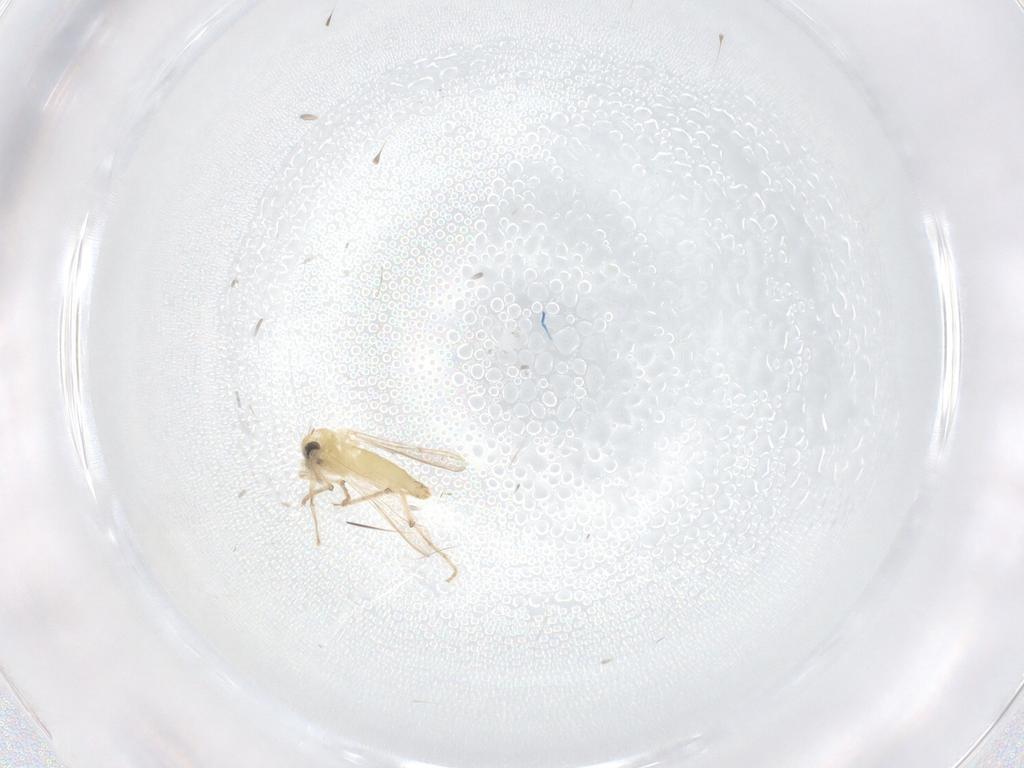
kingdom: Animalia
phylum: Arthropoda
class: Insecta
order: Diptera
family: Chironomidae
